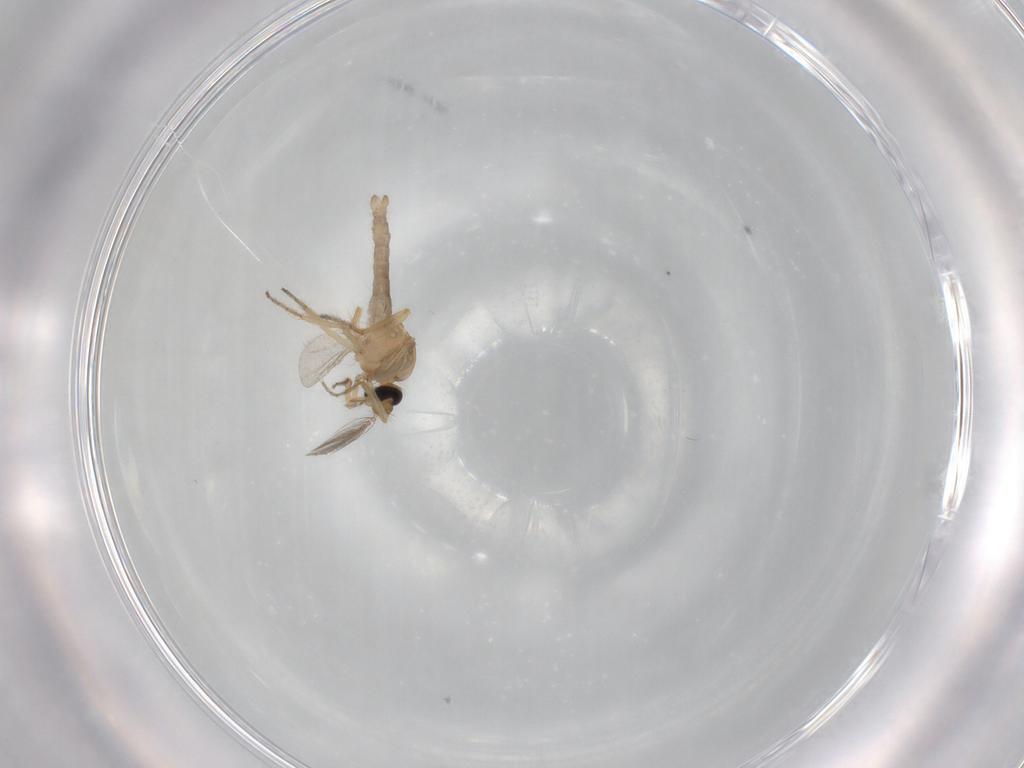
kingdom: Animalia
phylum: Arthropoda
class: Insecta
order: Diptera
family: Ceratopogonidae
